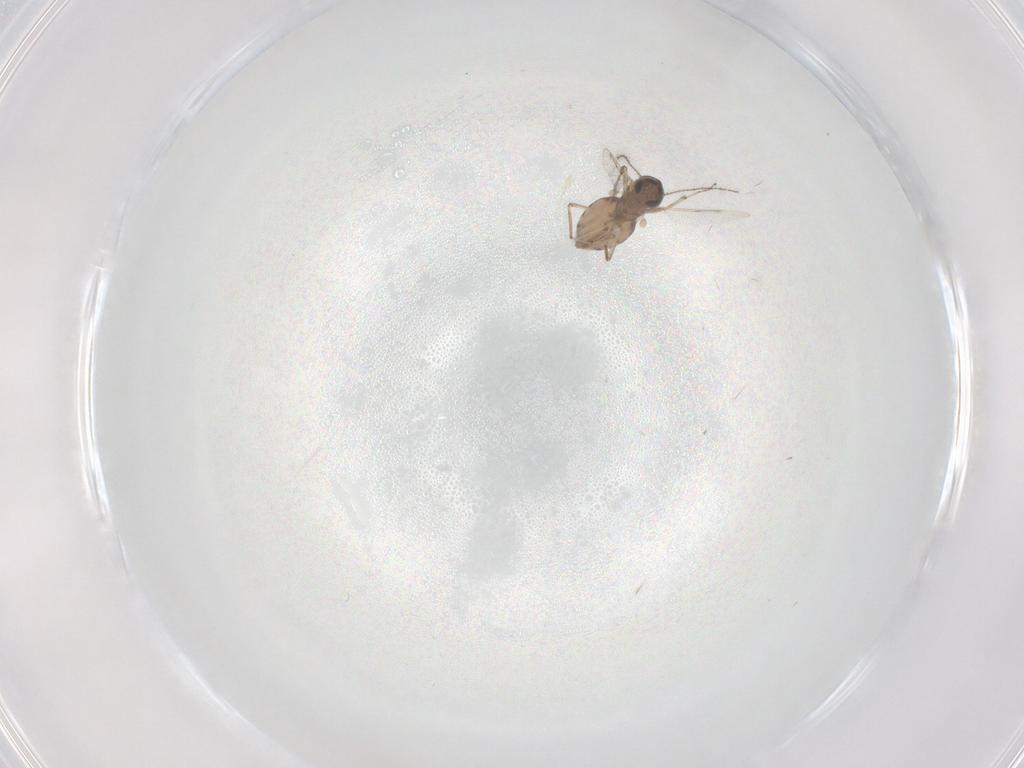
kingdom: Animalia
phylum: Arthropoda
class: Insecta
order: Diptera
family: Ceratopogonidae
